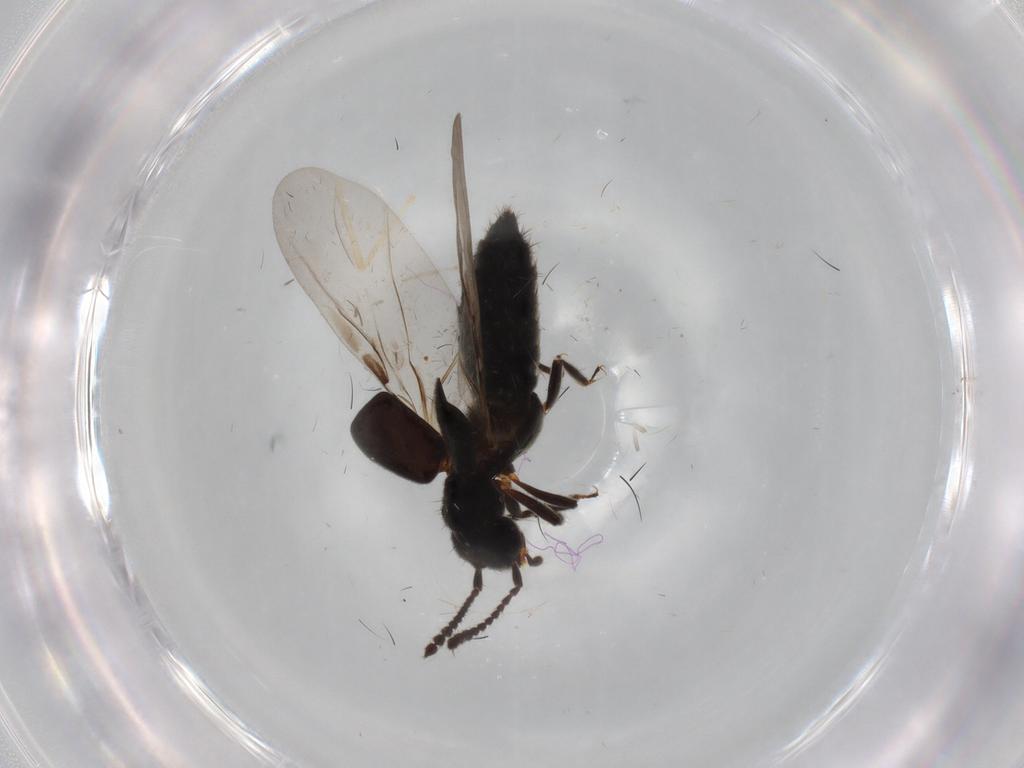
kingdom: Animalia
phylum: Arthropoda
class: Insecta
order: Coleoptera
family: Staphylinidae
